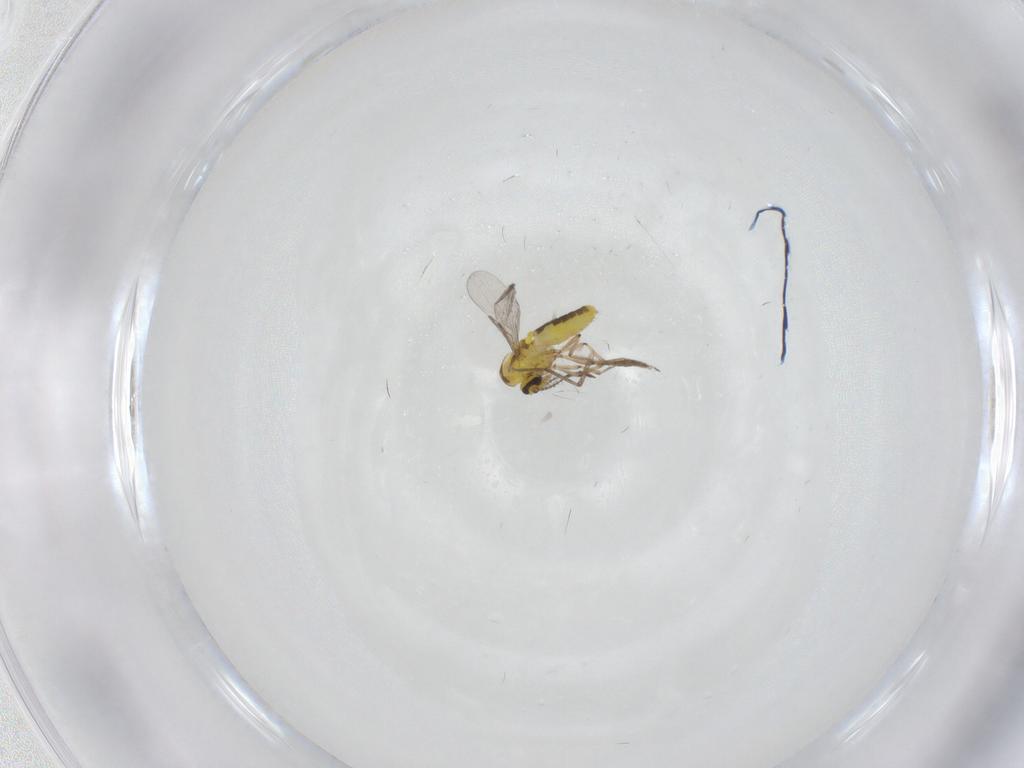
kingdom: Animalia
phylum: Arthropoda
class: Insecta
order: Diptera
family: Ceratopogonidae
